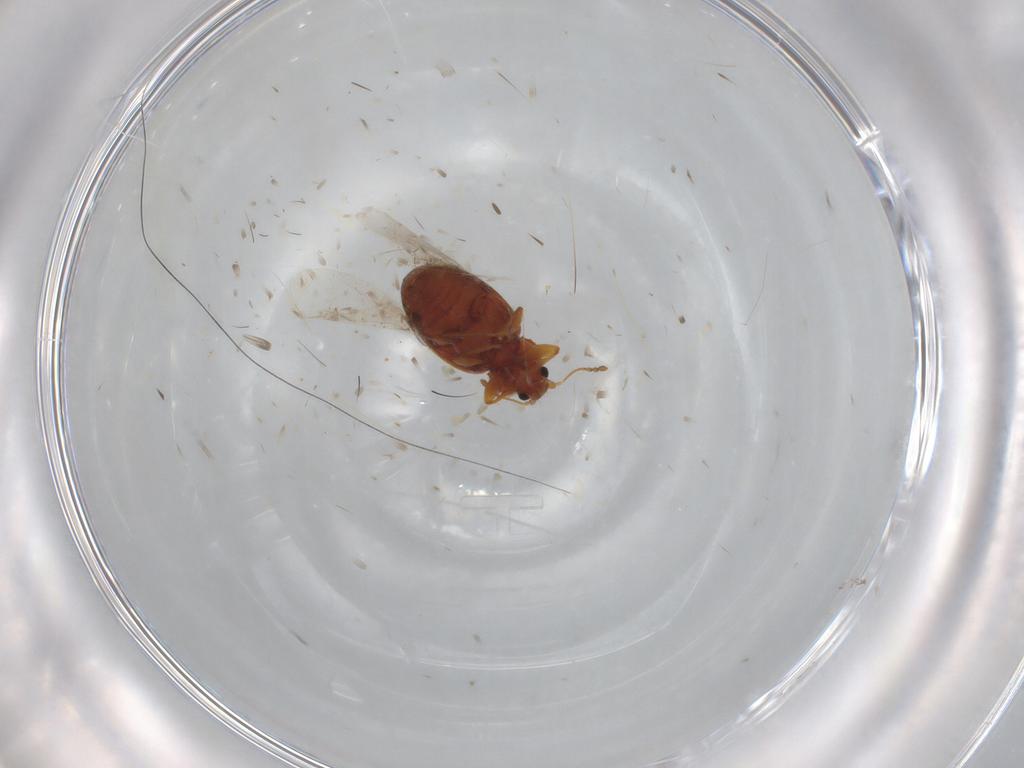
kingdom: Animalia
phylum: Arthropoda
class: Insecta
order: Coleoptera
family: Latridiidae
